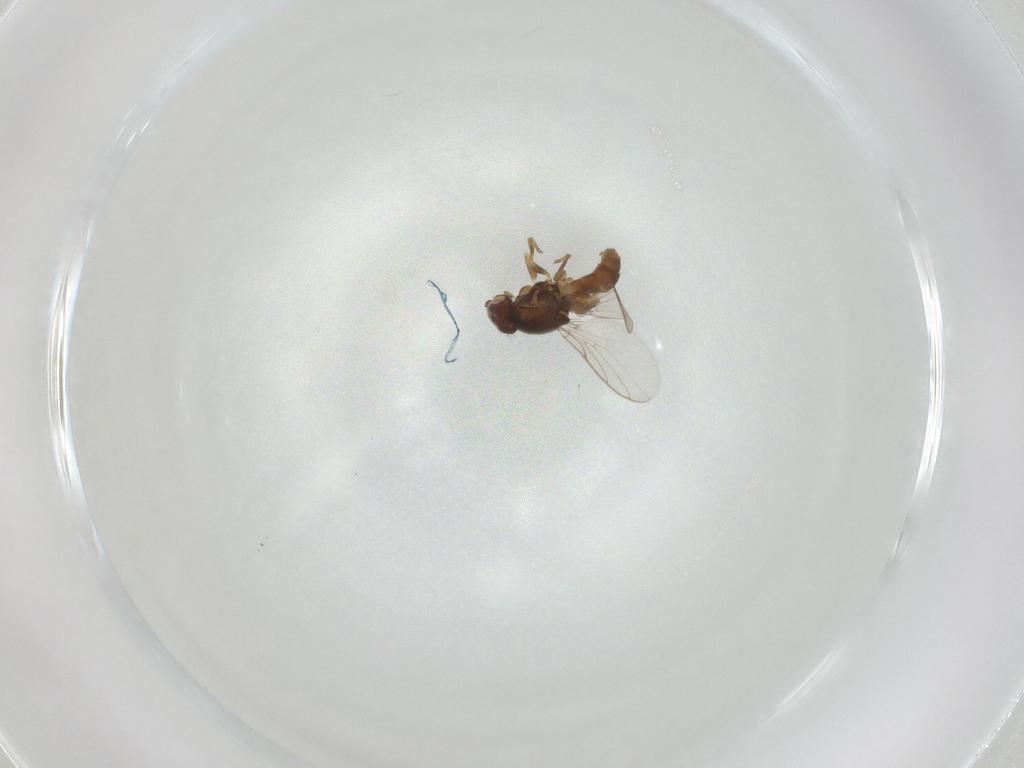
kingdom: Animalia
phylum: Arthropoda
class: Insecta
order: Diptera
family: Chloropidae
